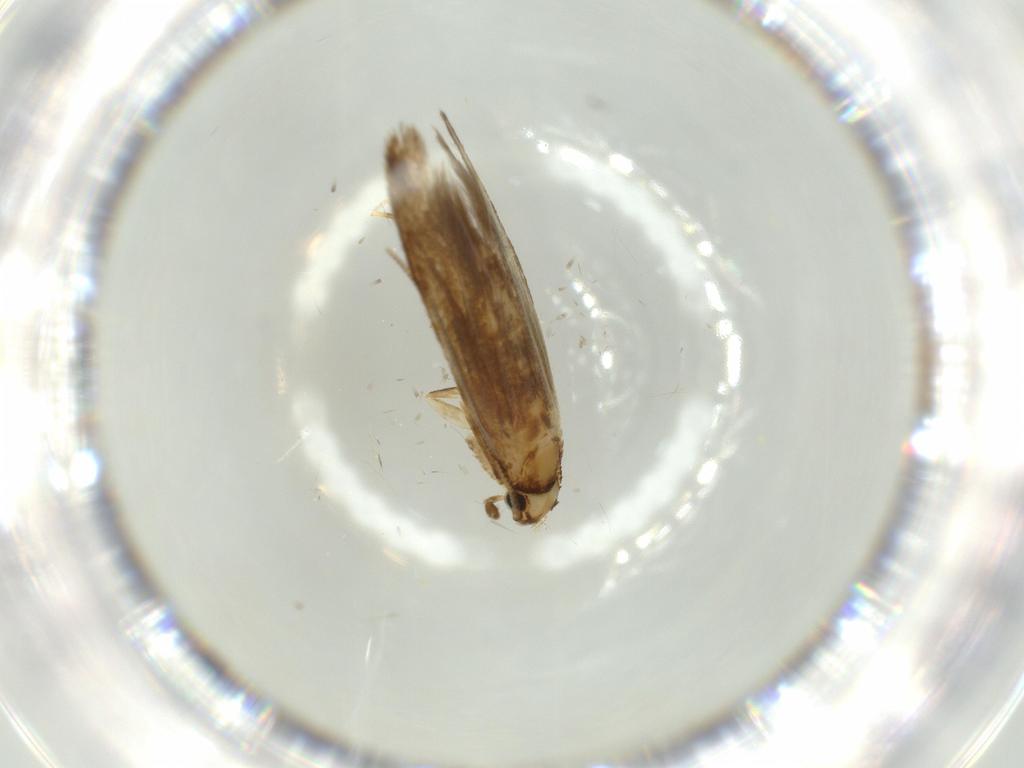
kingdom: Animalia
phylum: Arthropoda
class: Insecta
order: Lepidoptera
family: Tineidae
